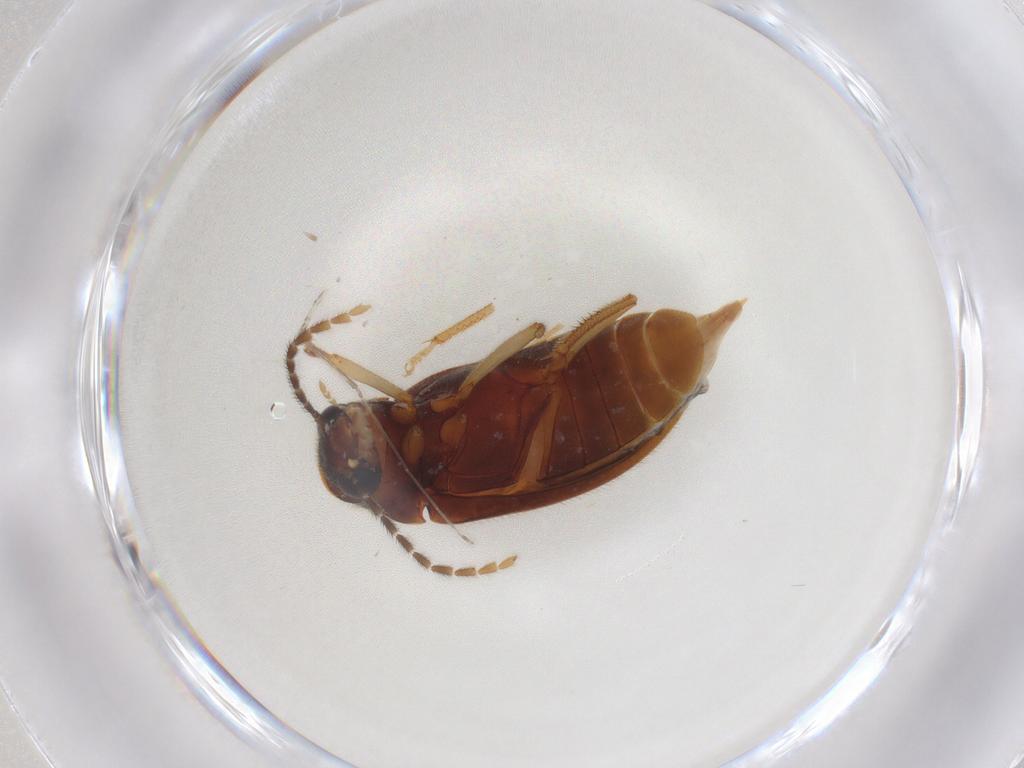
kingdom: Animalia
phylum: Arthropoda
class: Insecta
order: Coleoptera
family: Ptilodactylidae
